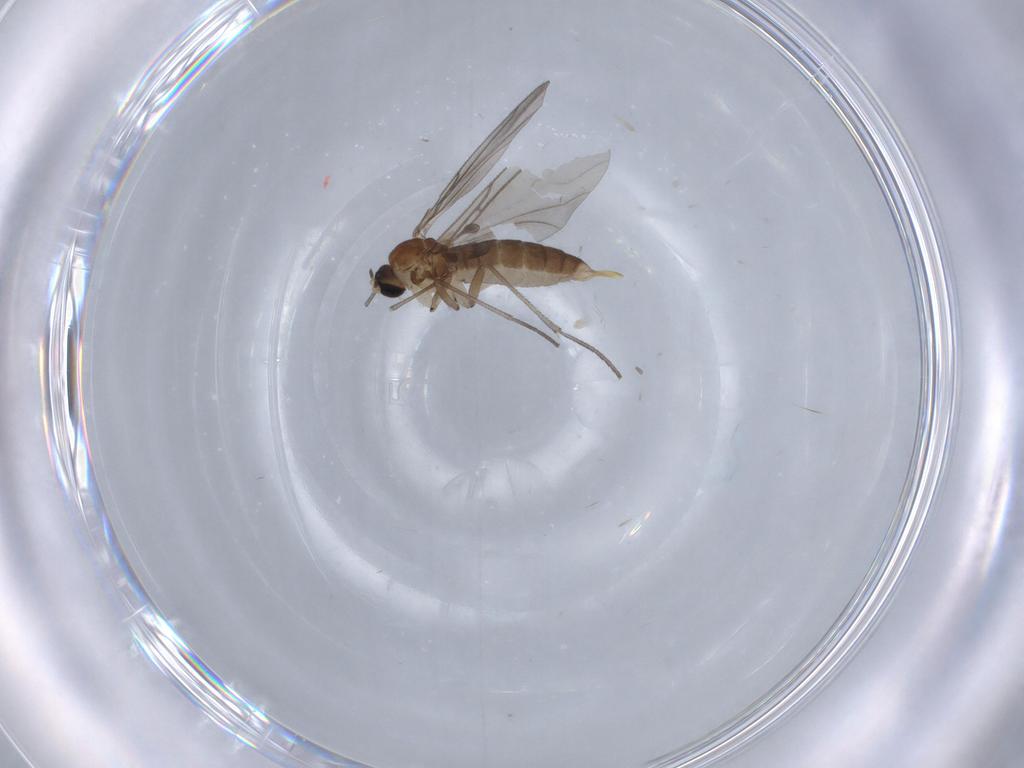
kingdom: Animalia
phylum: Arthropoda
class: Insecta
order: Diptera
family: Sciaridae
